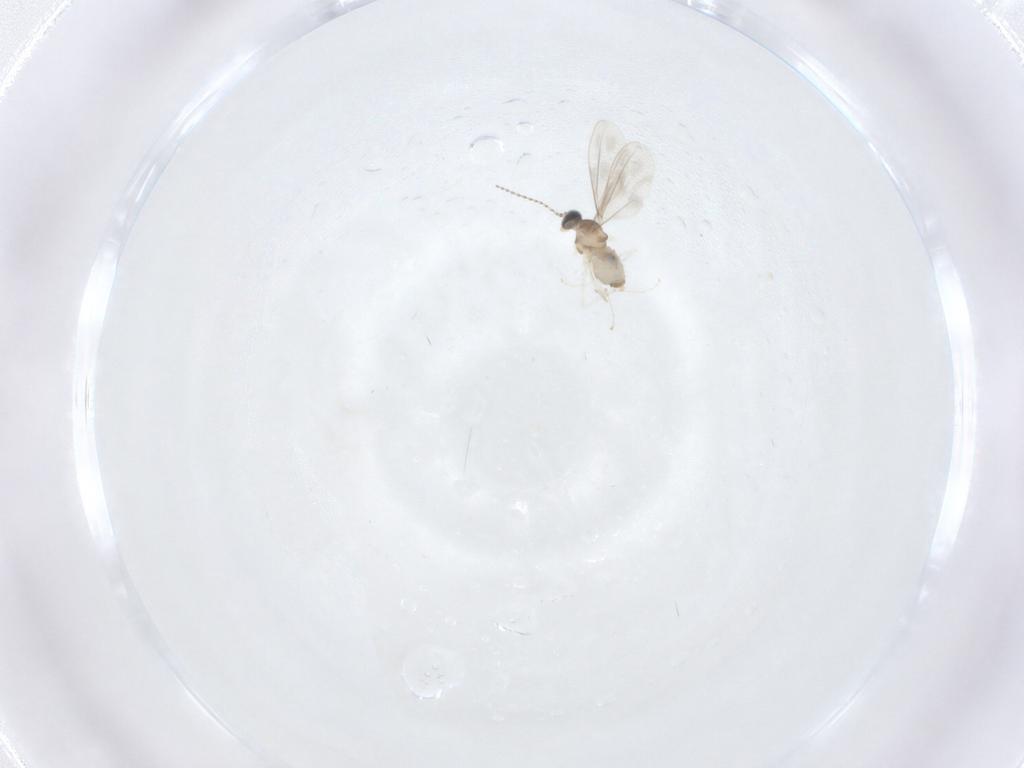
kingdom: Animalia
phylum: Arthropoda
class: Insecta
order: Diptera
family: Cecidomyiidae
